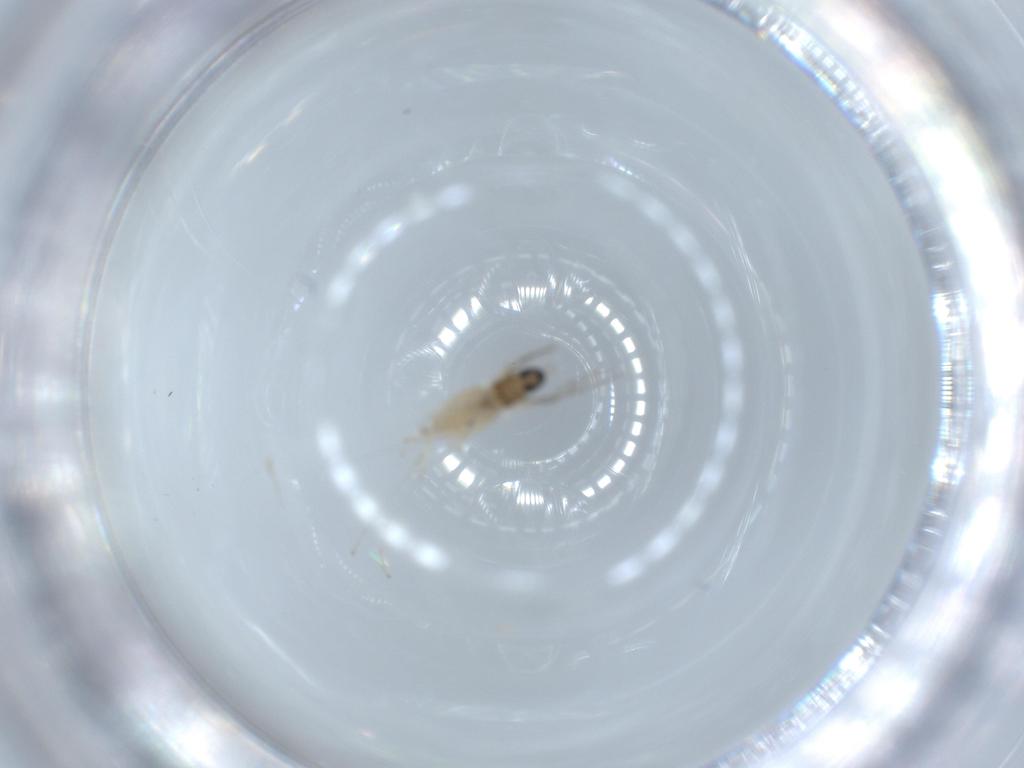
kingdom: Animalia
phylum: Arthropoda
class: Insecta
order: Diptera
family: Cecidomyiidae
